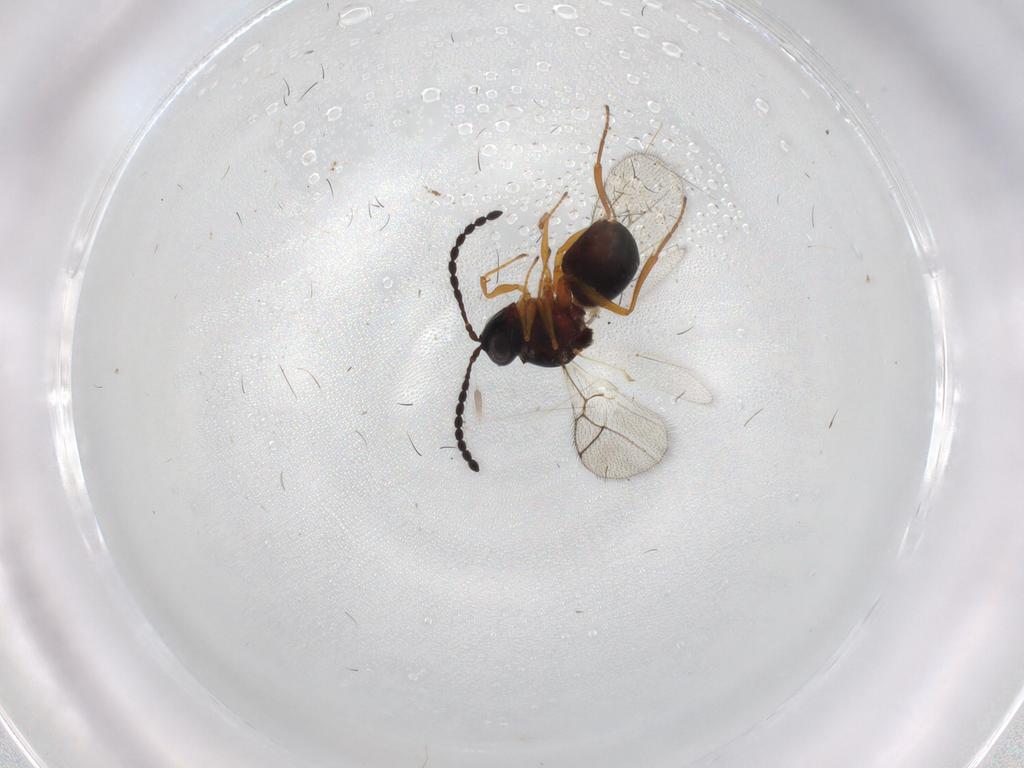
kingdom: Animalia
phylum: Arthropoda
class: Insecta
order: Hymenoptera
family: Figitidae
